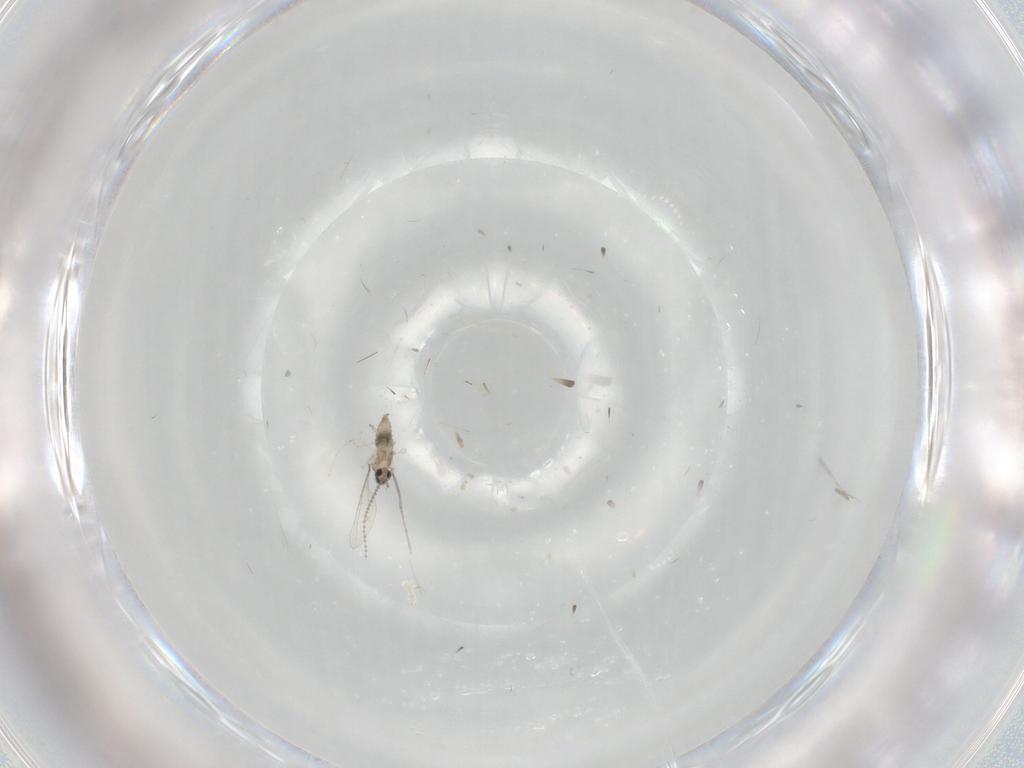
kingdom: Animalia
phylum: Arthropoda
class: Insecta
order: Diptera
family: Cecidomyiidae
